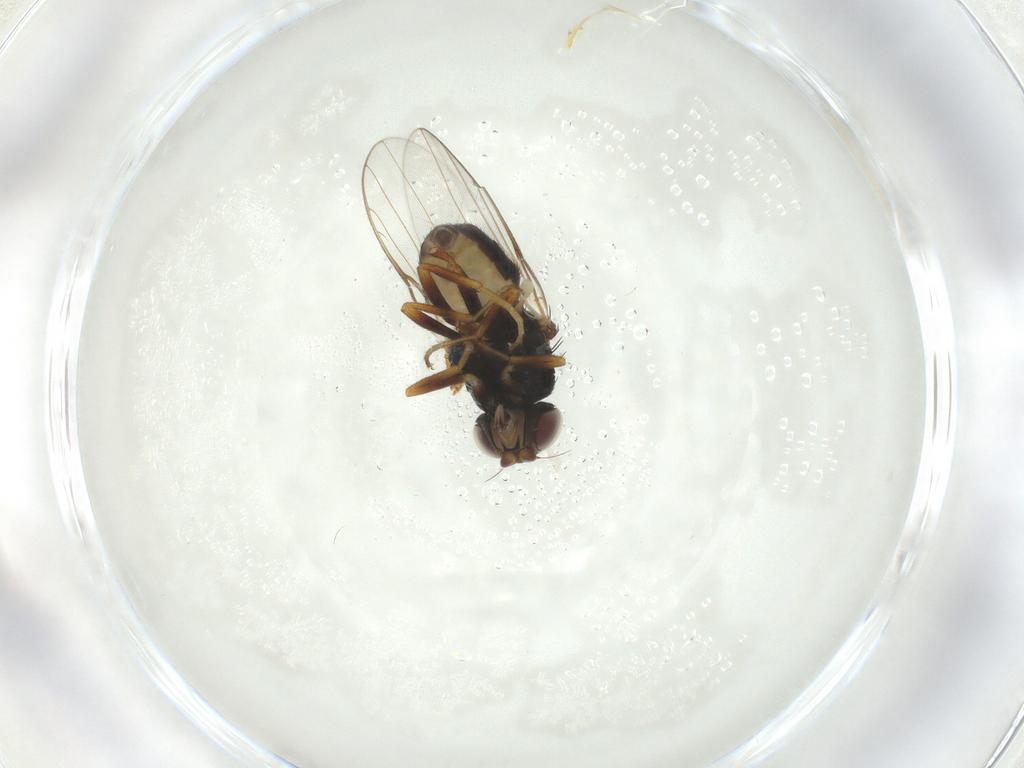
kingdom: Animalia
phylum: Arthropoda
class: Insecta
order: Diptera
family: Chloropidae
